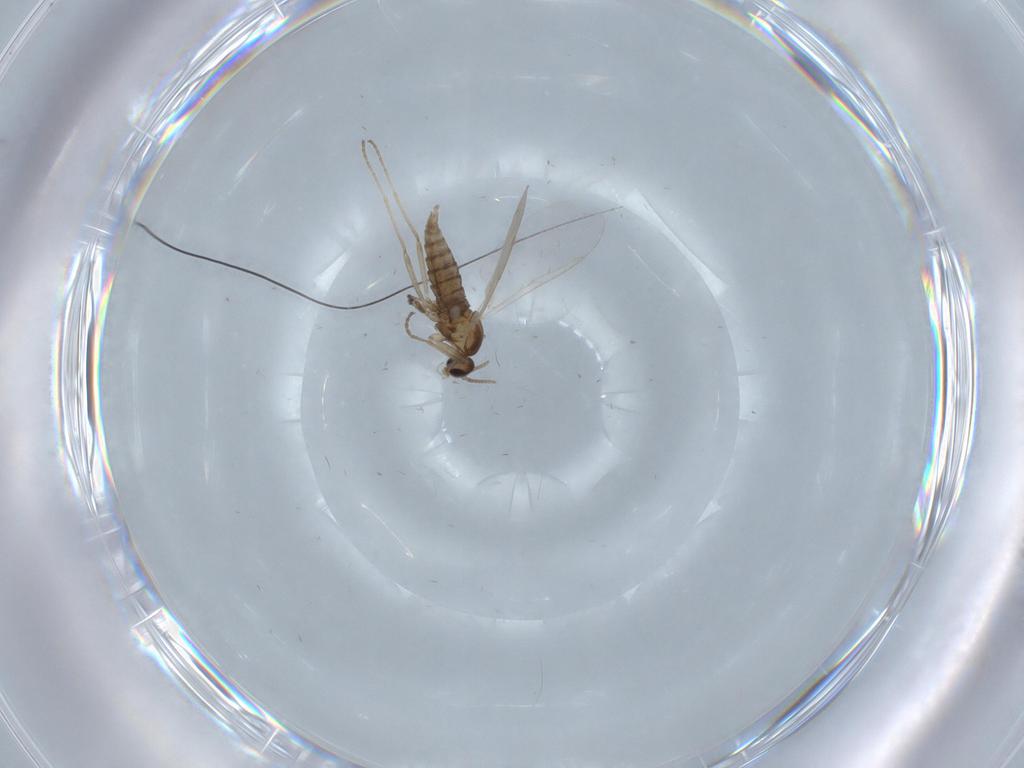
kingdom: Animalia
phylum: Arthropoda
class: Insecta
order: Diptera
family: Cecidomyiidae
